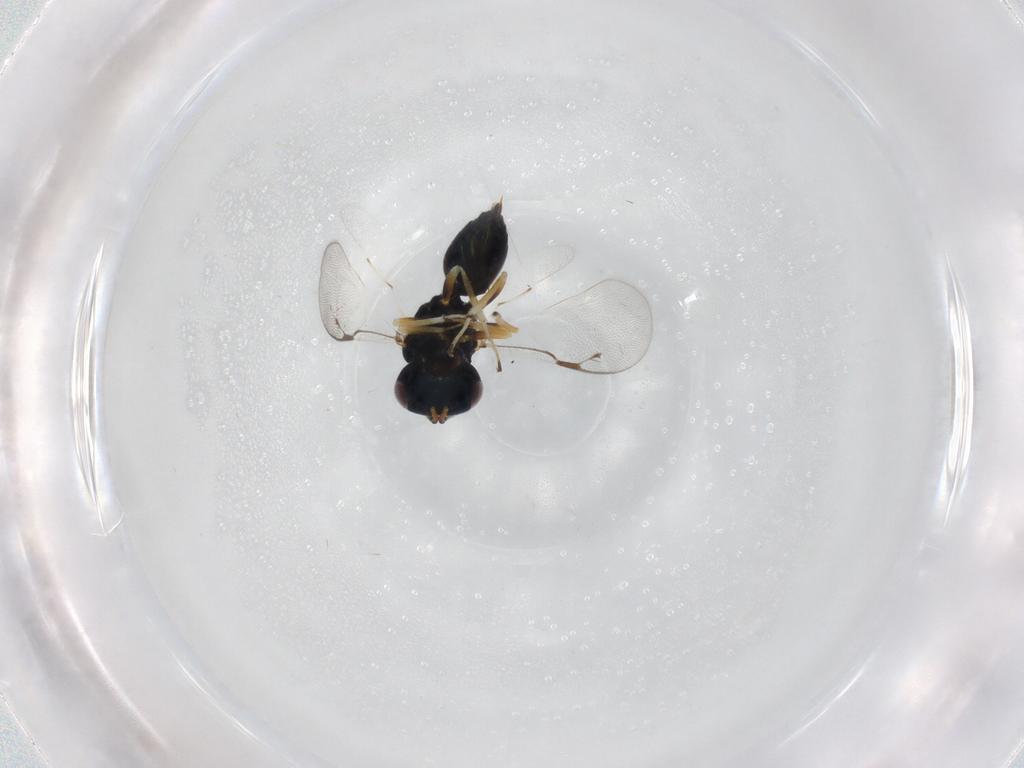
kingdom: Animalia
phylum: Arthropoda
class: Insecta
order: Hymenoptera
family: Pteromalidae
